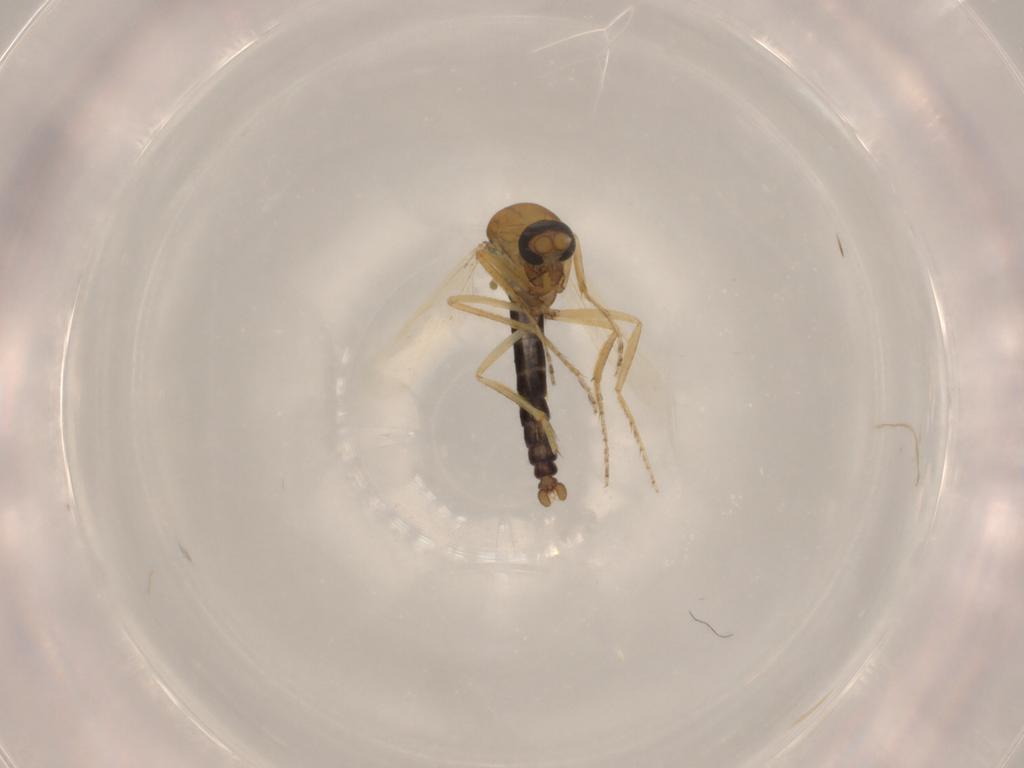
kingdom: Animalia
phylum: Arthropoda
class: Insecta
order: Diptera
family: Ceratopogonidae
